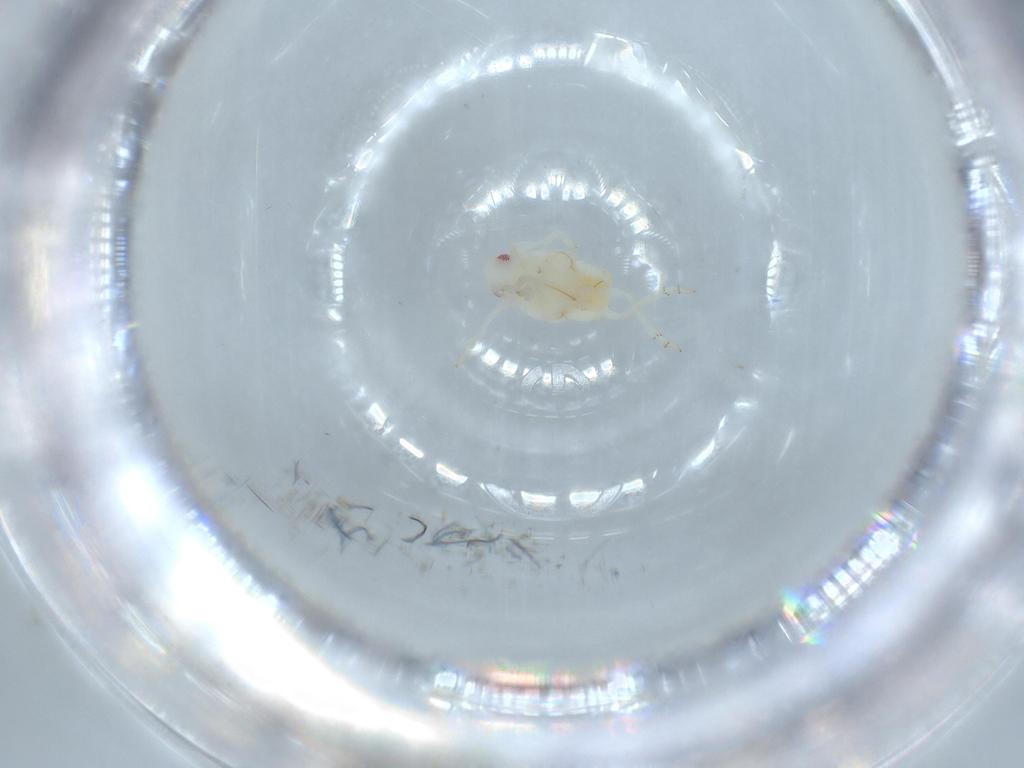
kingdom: Animalia
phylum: Arthropoda
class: Insecta
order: Hemiptera
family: Flatidae
